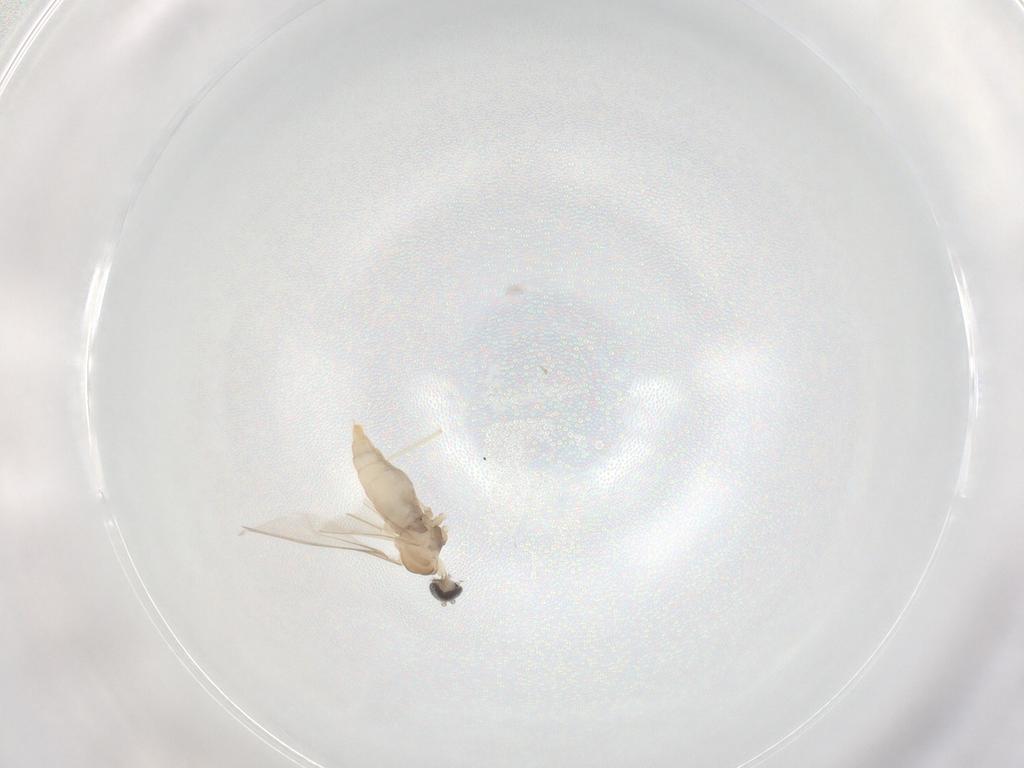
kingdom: Animalia
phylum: Arthropoda
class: Insecta
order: Diptera
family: Cecidomyiidae
